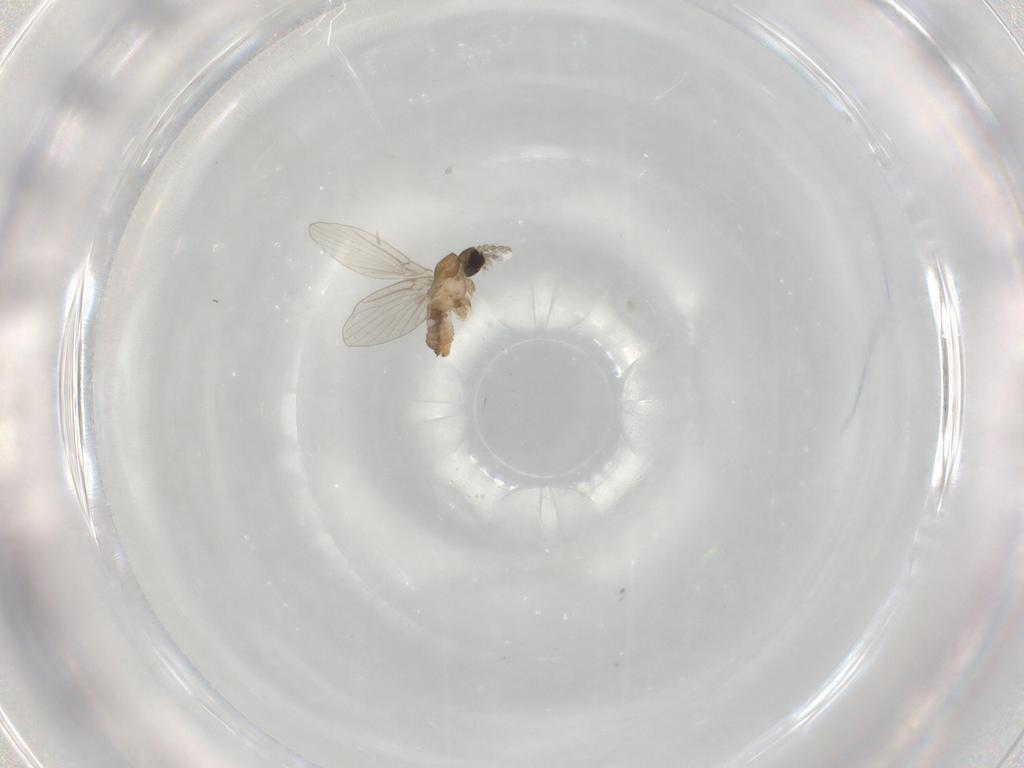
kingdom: Animalia
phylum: Arthropoda
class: Insecta
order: Diptera
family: Psychodidae
